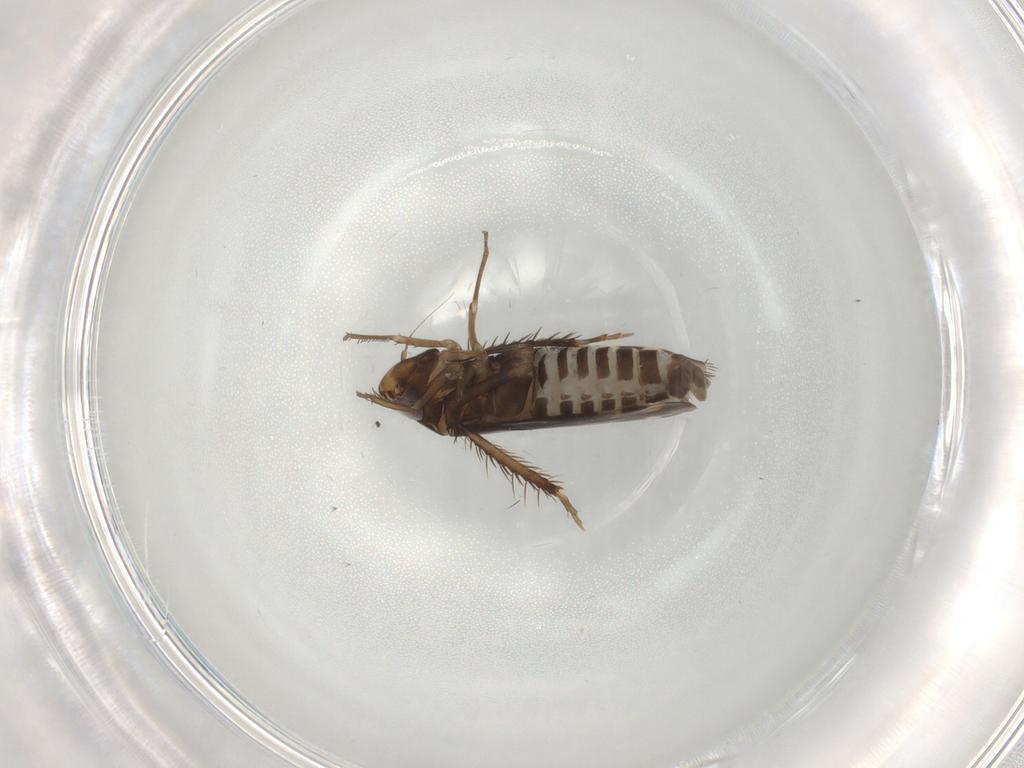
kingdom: Animalia
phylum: Arthropoda
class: Insecta
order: Hemiptera
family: Cicadellidae
